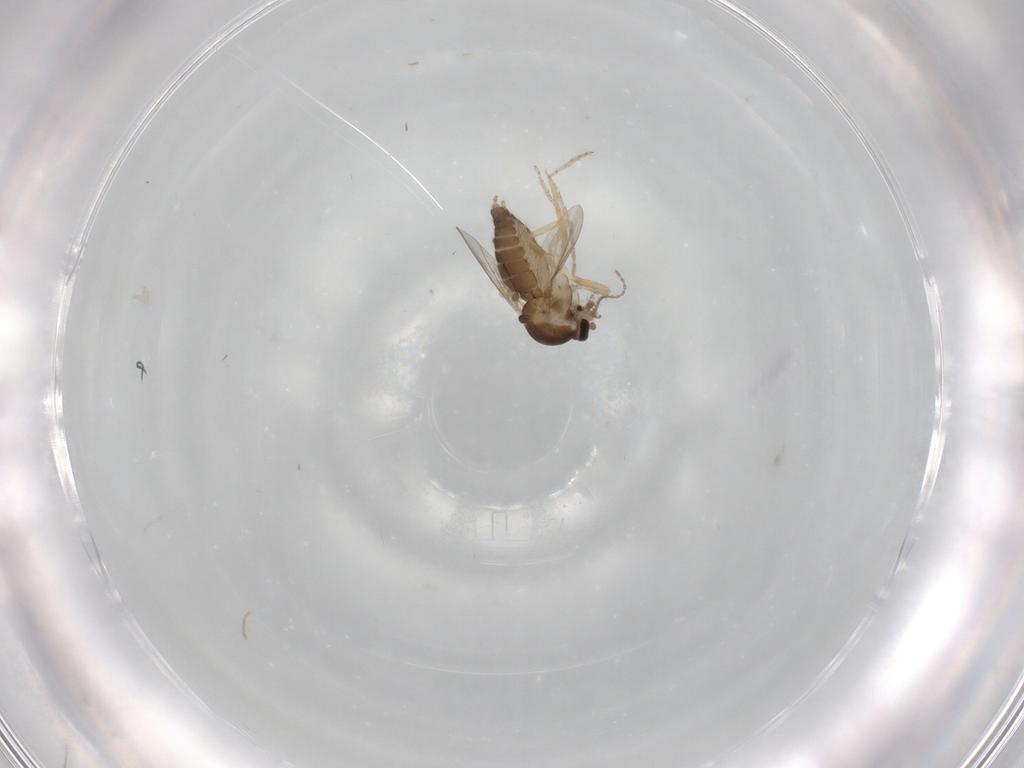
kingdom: Animalia
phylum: Arthropoda
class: Insecta
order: Diptera
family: Ceratopogonidae
